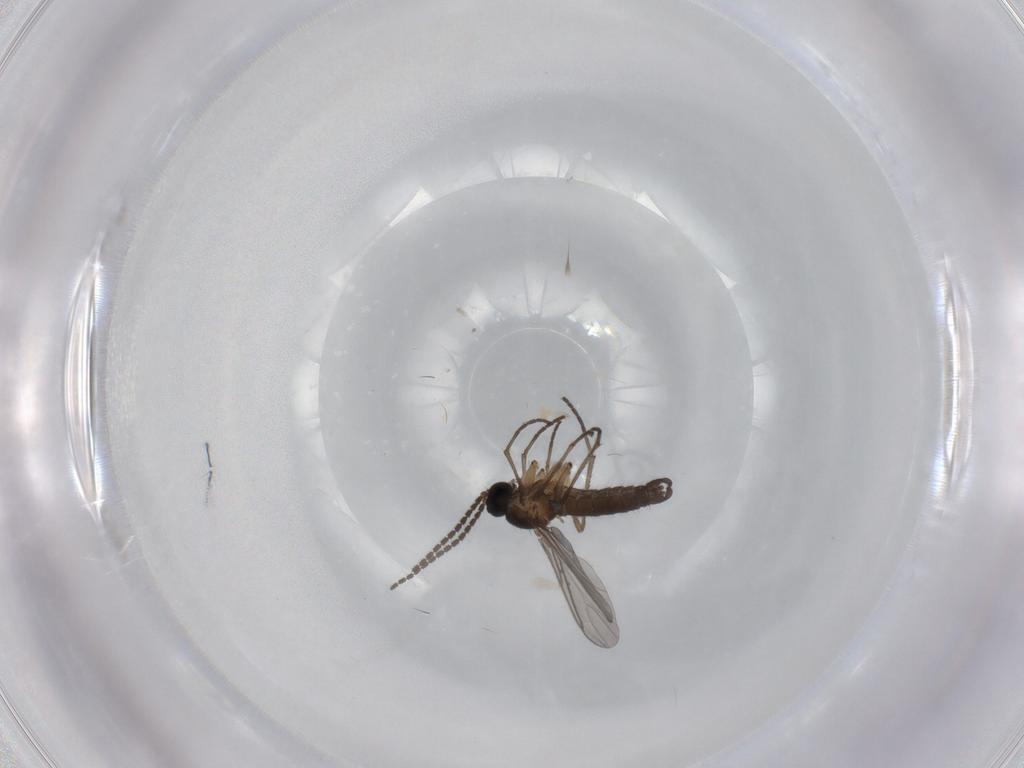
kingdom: Animalia
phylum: Arthropoda
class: Insecta
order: Diptera
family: Sciaridae
